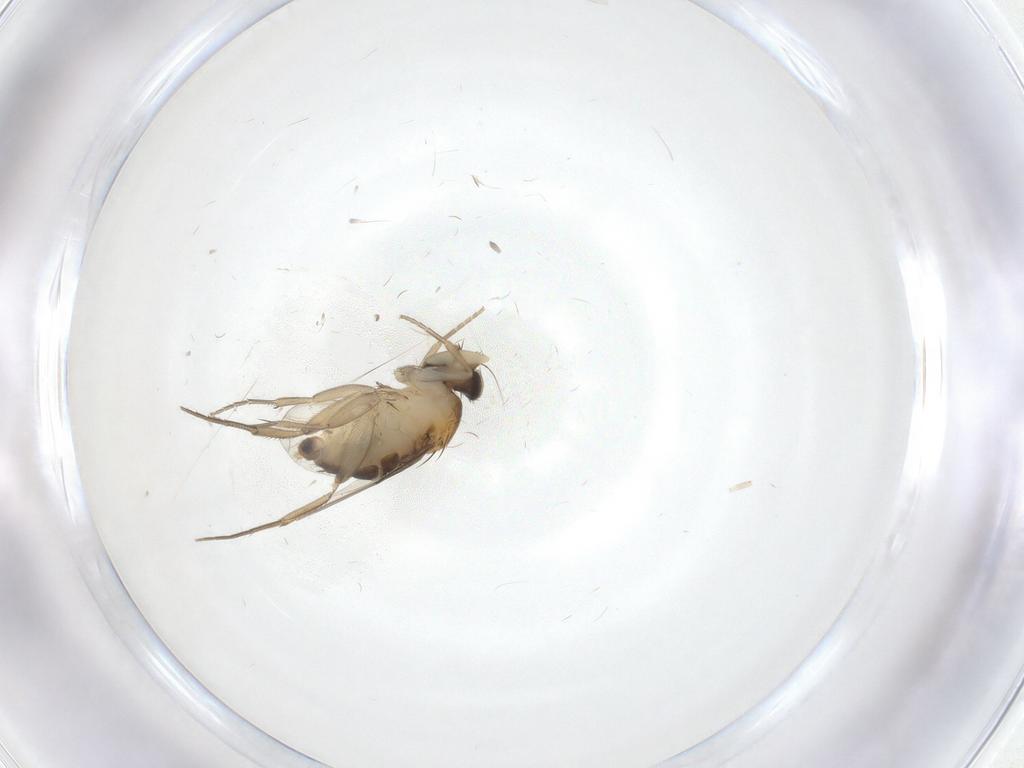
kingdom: Animalia
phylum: Arthropoda
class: Insecta
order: Diptera
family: Phoridae
